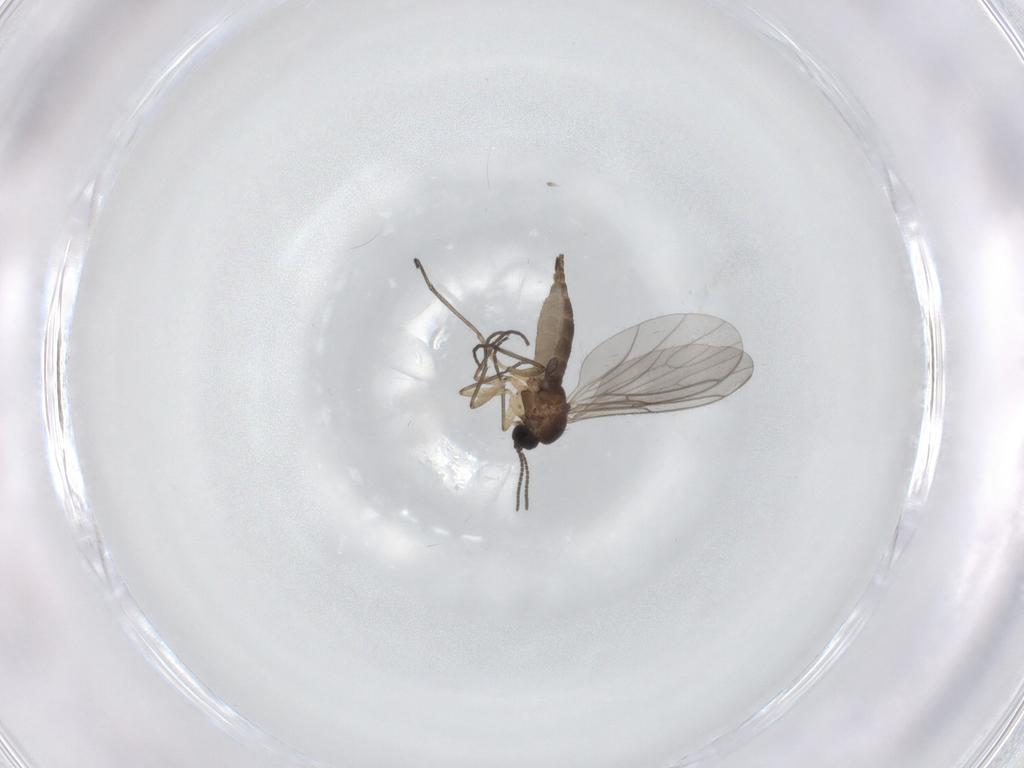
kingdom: Animalia
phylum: Arthropoda
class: Insecta
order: Diptera
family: Sciaridae
